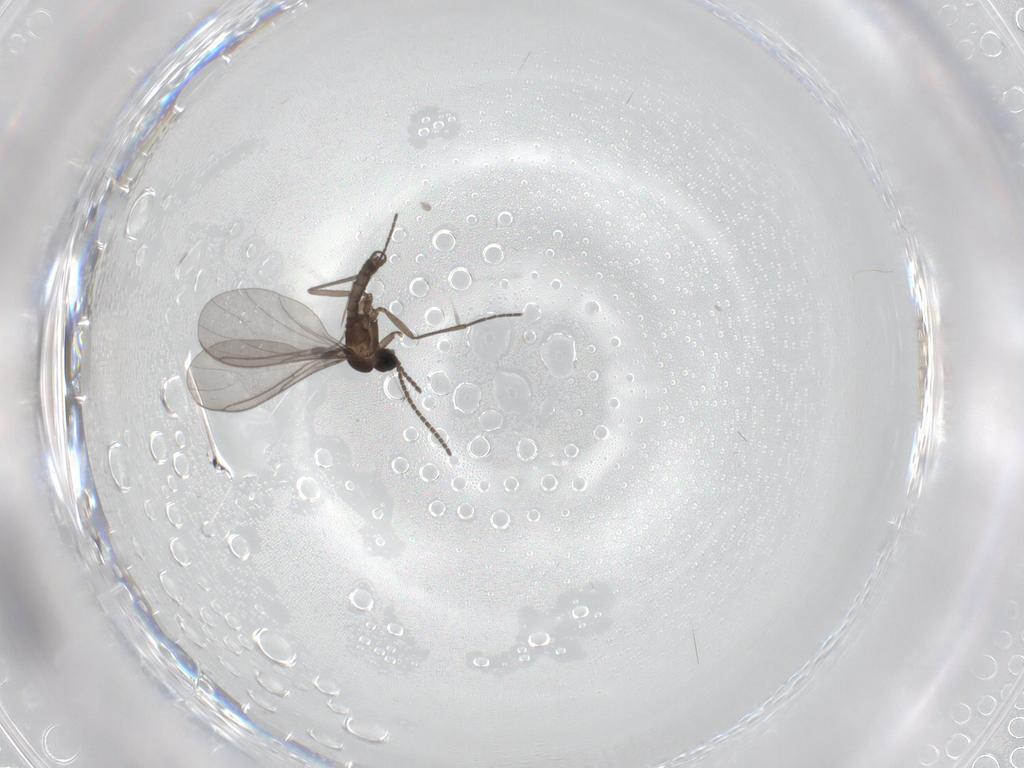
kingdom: Animalia
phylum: Arthropoda
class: Insecta
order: Diptera
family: Sciaridae
